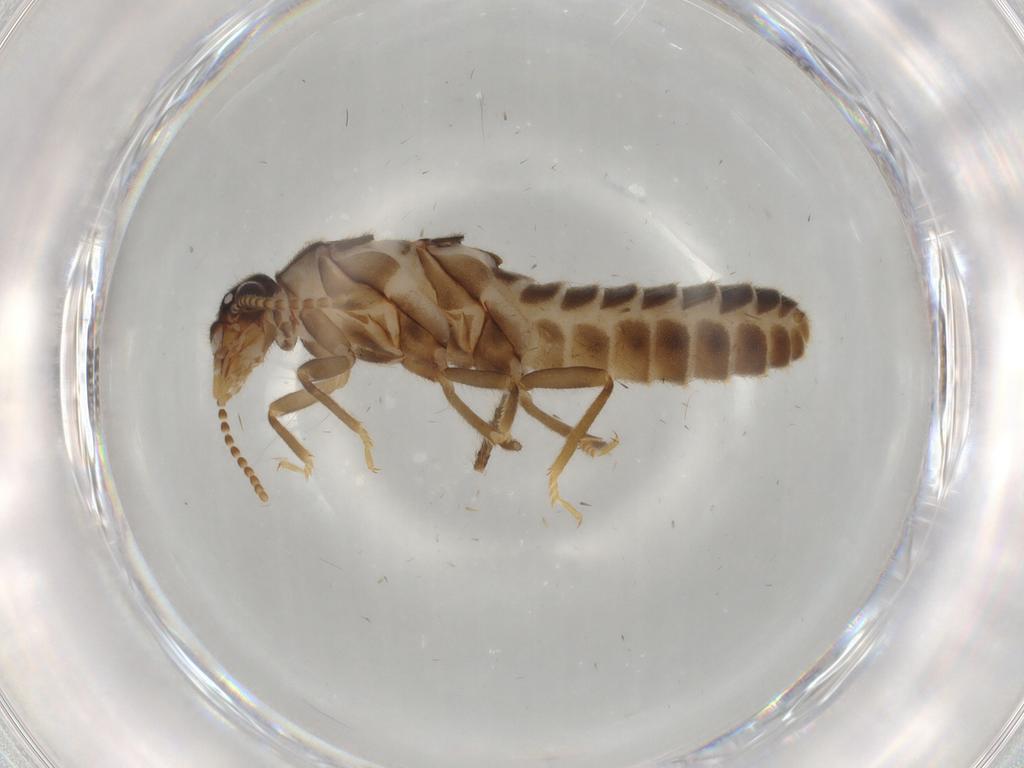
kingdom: Animalia
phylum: Arthropoda
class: Insecta
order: Blattodea
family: Termitidae
